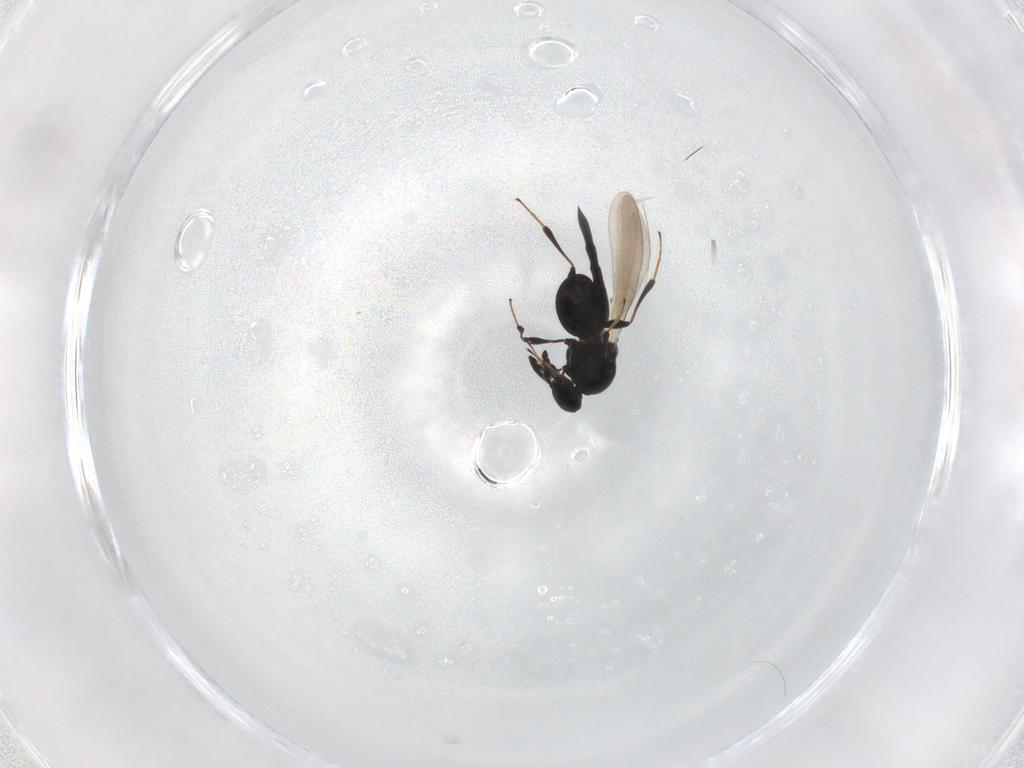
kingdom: Animalia
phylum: Arthropoda
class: Insecta
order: Hymenoptera
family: Platygastridae
